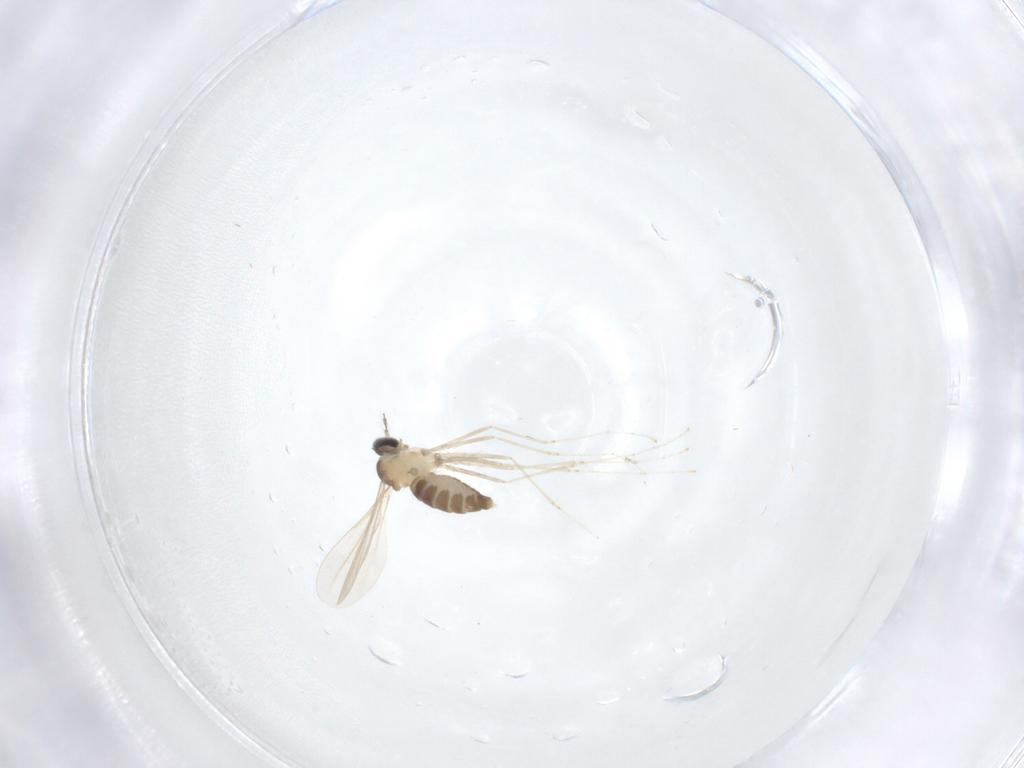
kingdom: Animalia
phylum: Arthropoda
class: Insecta
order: Diptera
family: Cecidomyiidae
